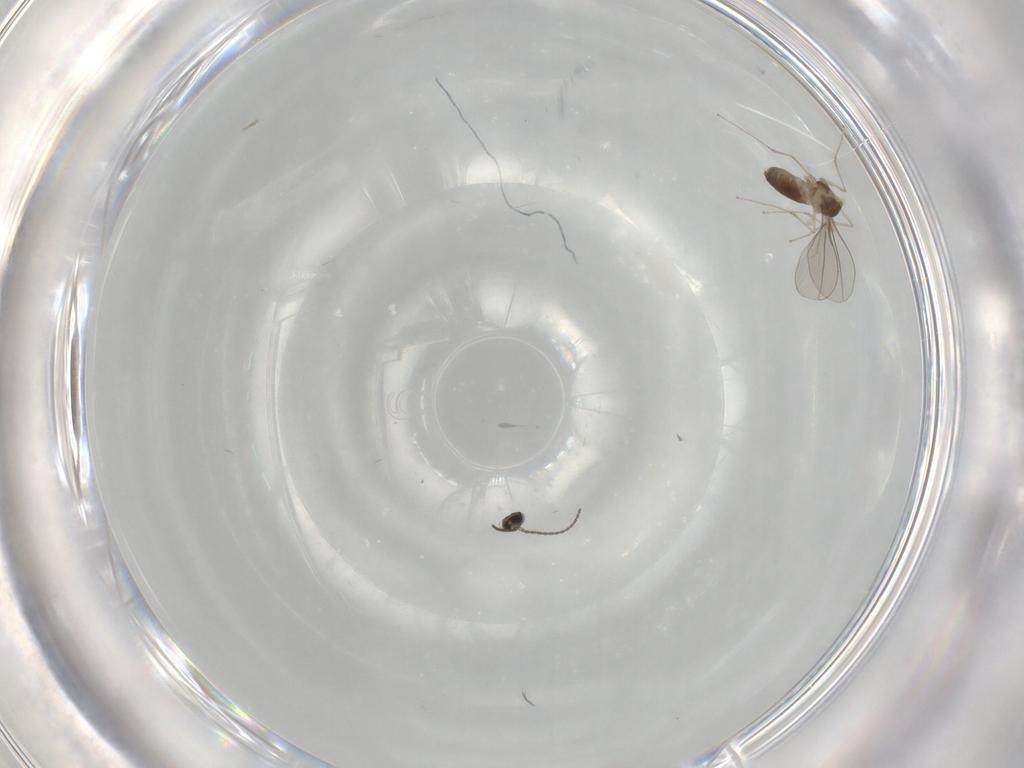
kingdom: Animalia
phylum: Arthropoda
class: Insecta
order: Diptera
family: Cecidomyiidae
